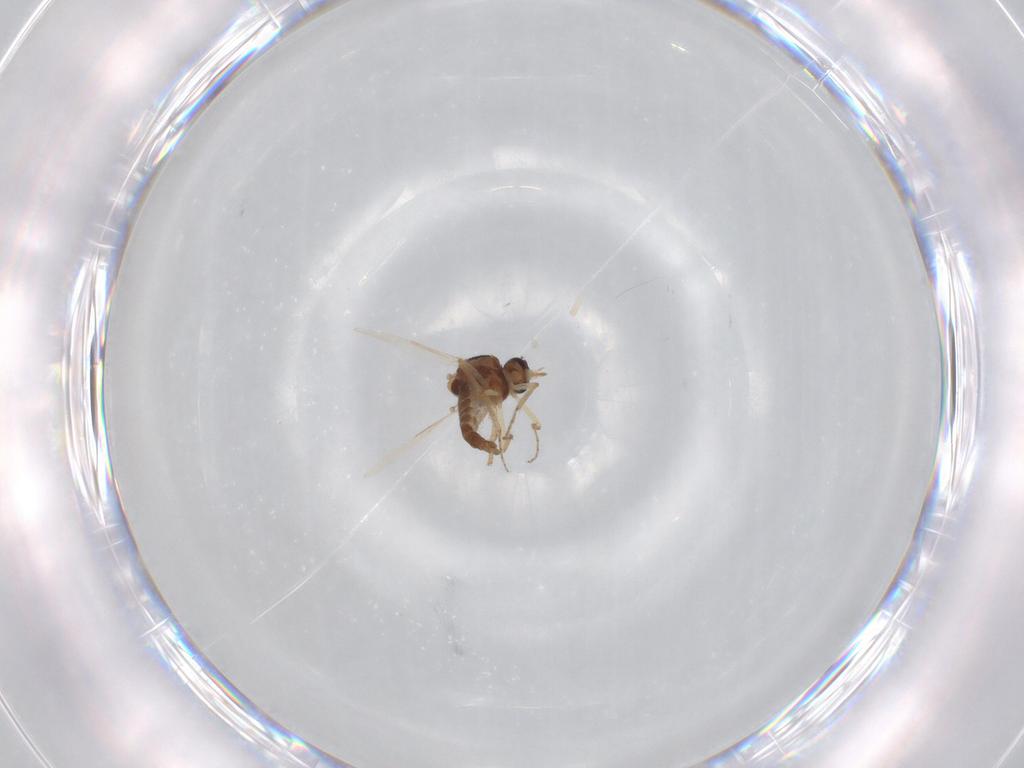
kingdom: Animalia
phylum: Arthropoda
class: Insecta
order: Diptera
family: Ceratopogonidae
